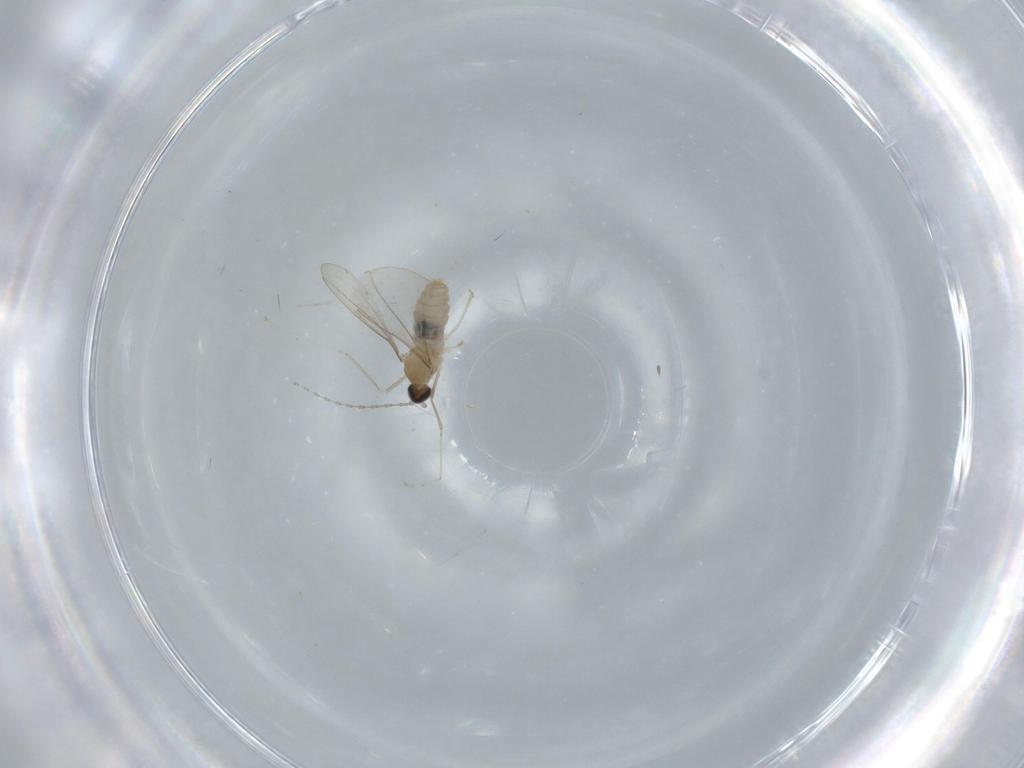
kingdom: Animalia
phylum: Arthropoda
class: Insecta
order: Diptera
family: Cecidomyiidae
